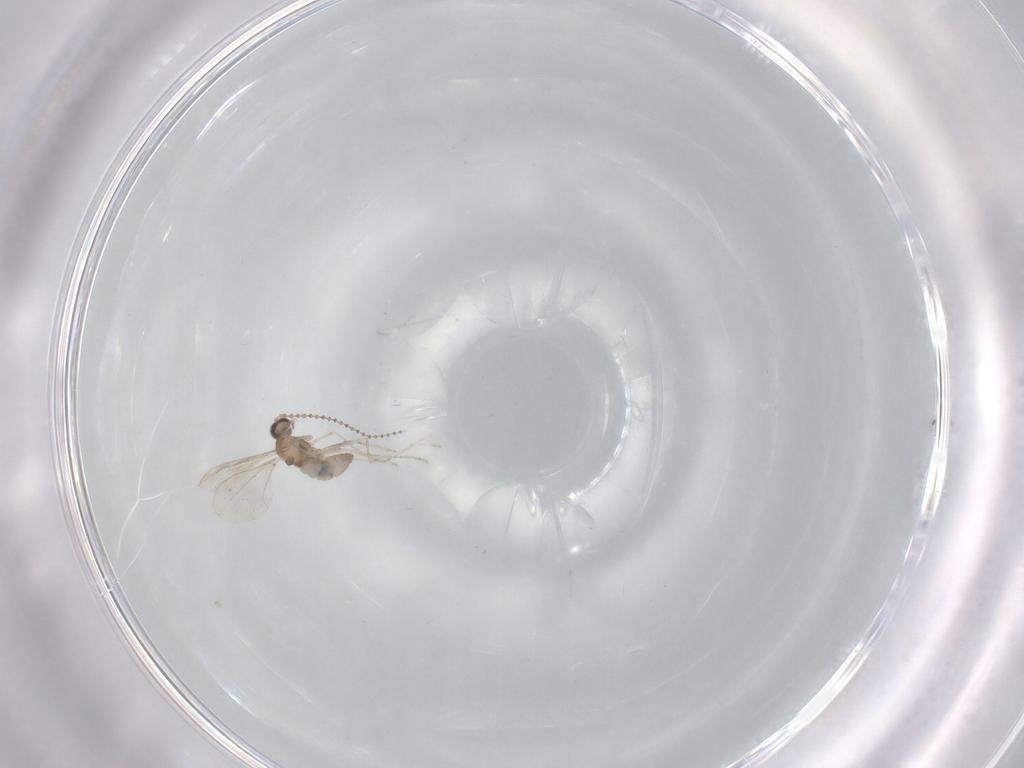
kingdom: Animalia
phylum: Arthropoda
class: Insecta
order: Diptera
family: Cecidomyiidae
